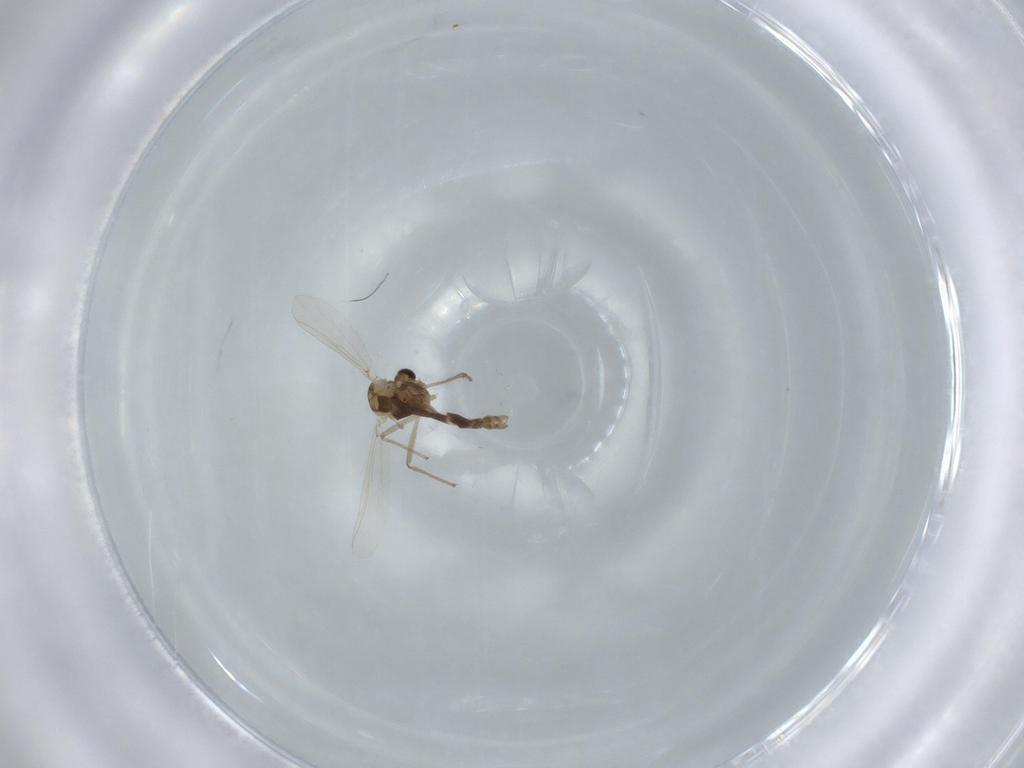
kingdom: Animalia
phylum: Arthropoda
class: Insecta
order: Diptera
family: Chironomidae
